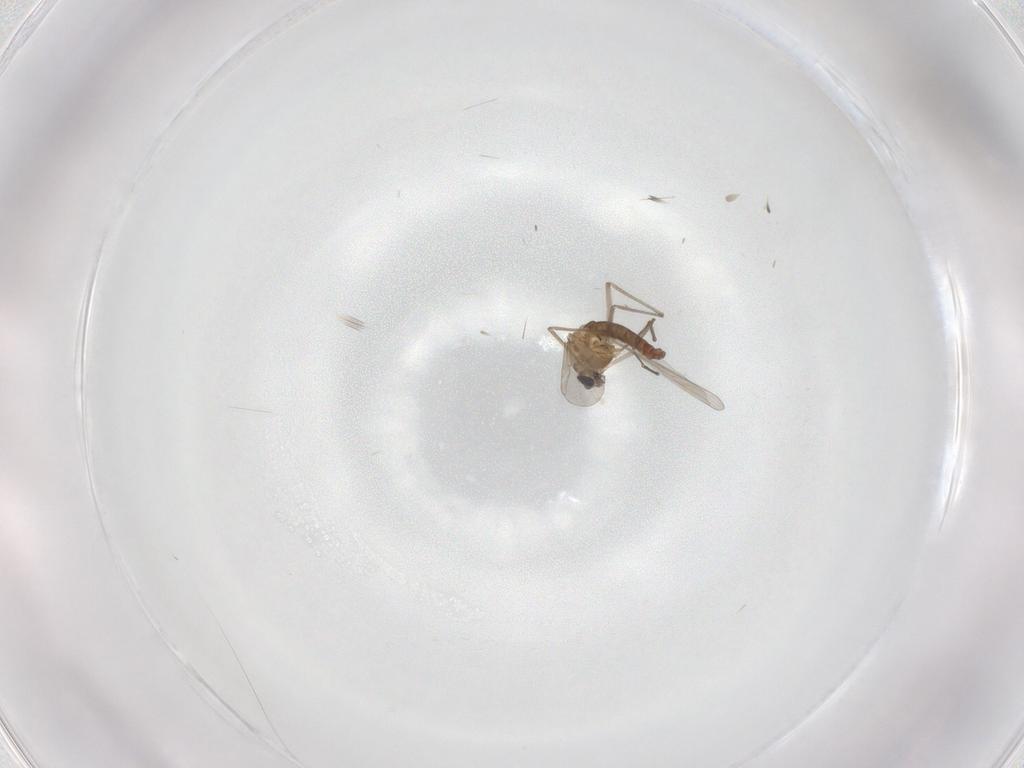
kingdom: Animalia
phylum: Arthropoda
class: Insecta
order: Diptera
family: Chironomidae
